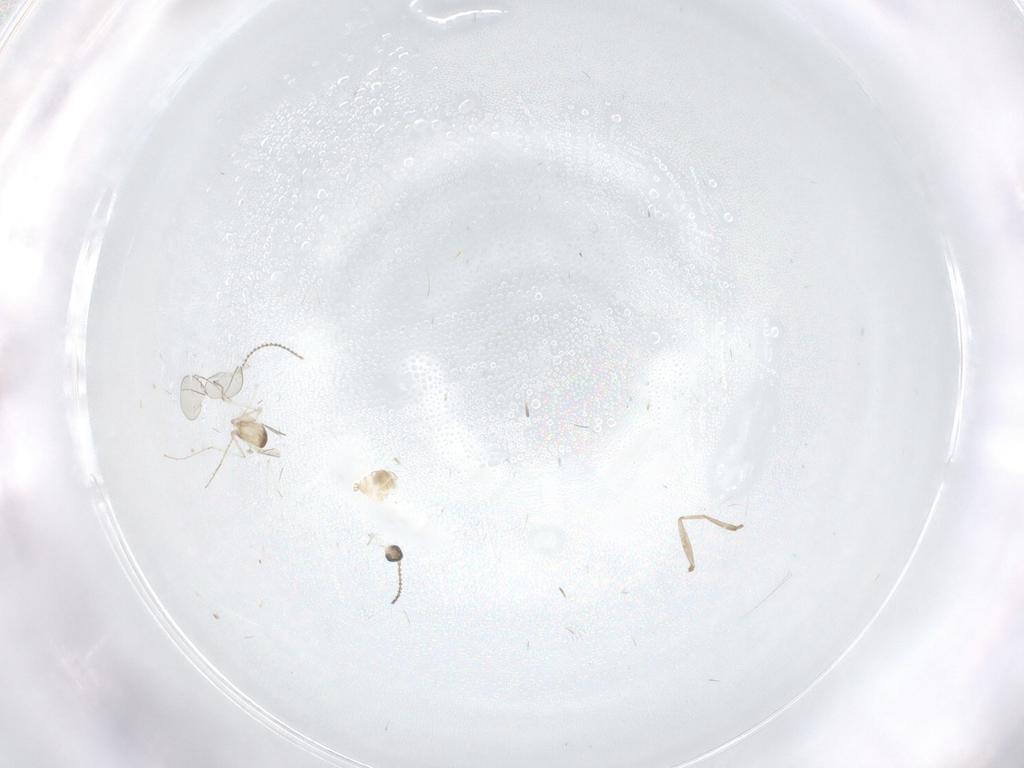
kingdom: Animalia
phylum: Arthropoda
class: Insecta
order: Diptera
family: Cecidomyiidae
